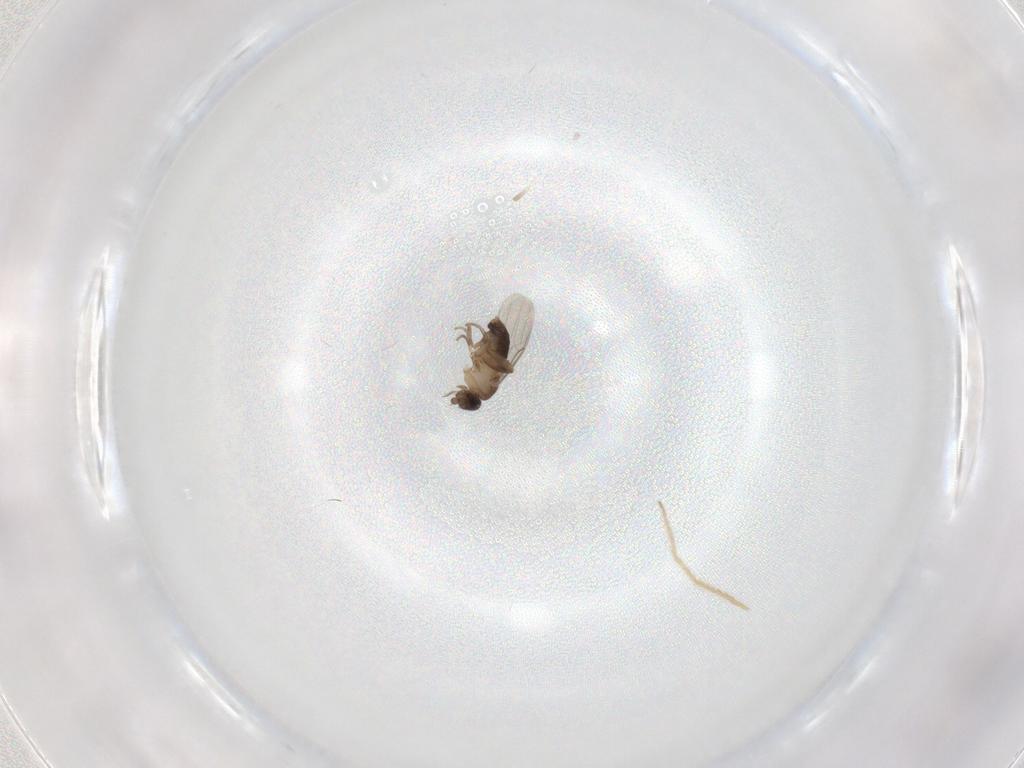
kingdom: Animalia
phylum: Arthropoda
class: Insecta
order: Diptera
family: Phoridae
